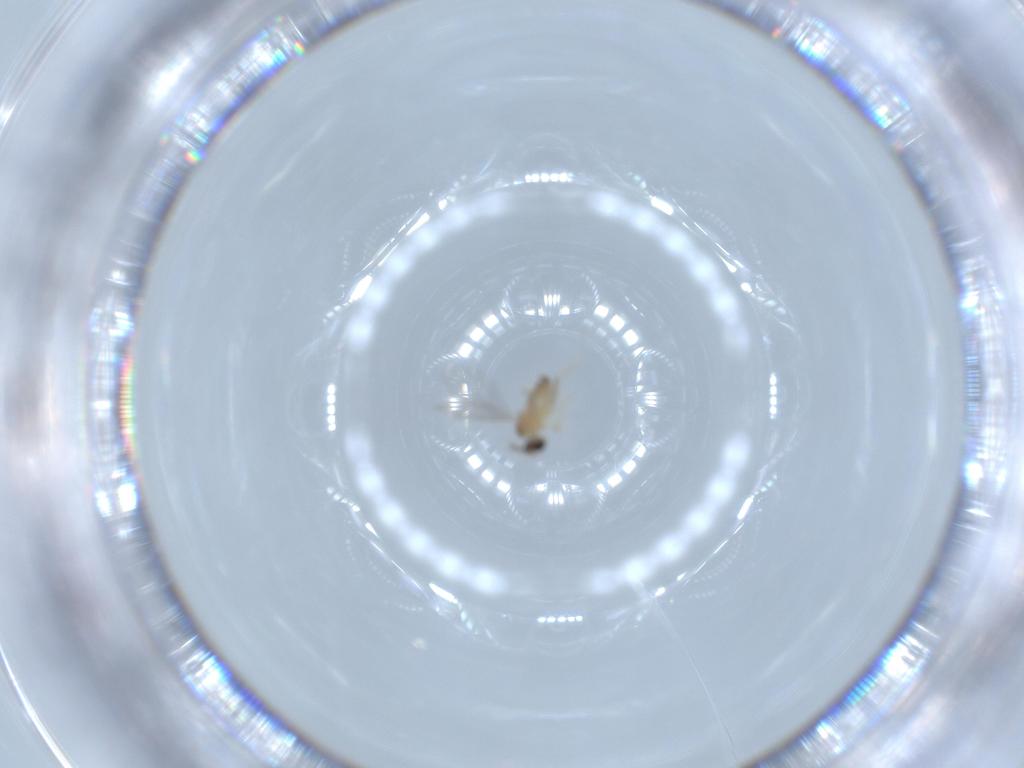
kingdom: Animalia
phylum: Arthropoda
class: Insecta
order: Diptera
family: Cecidomyiidae
